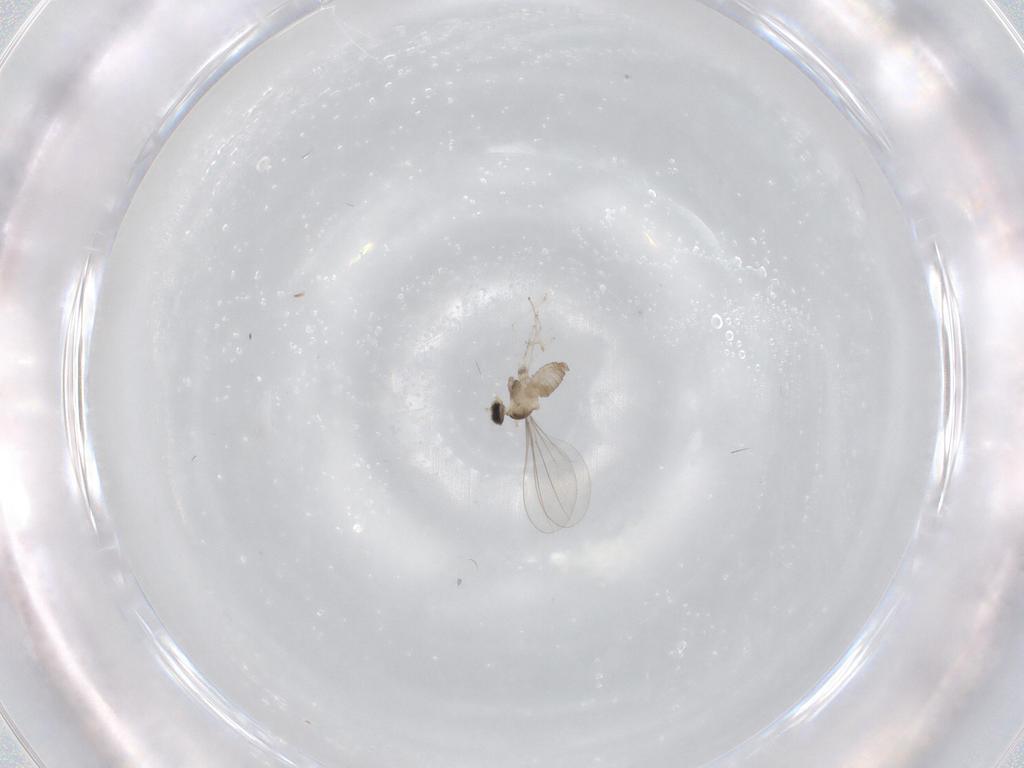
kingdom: Animalia
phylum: Arthropoda
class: Insecta
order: Diptera
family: Cecidomyiidae
